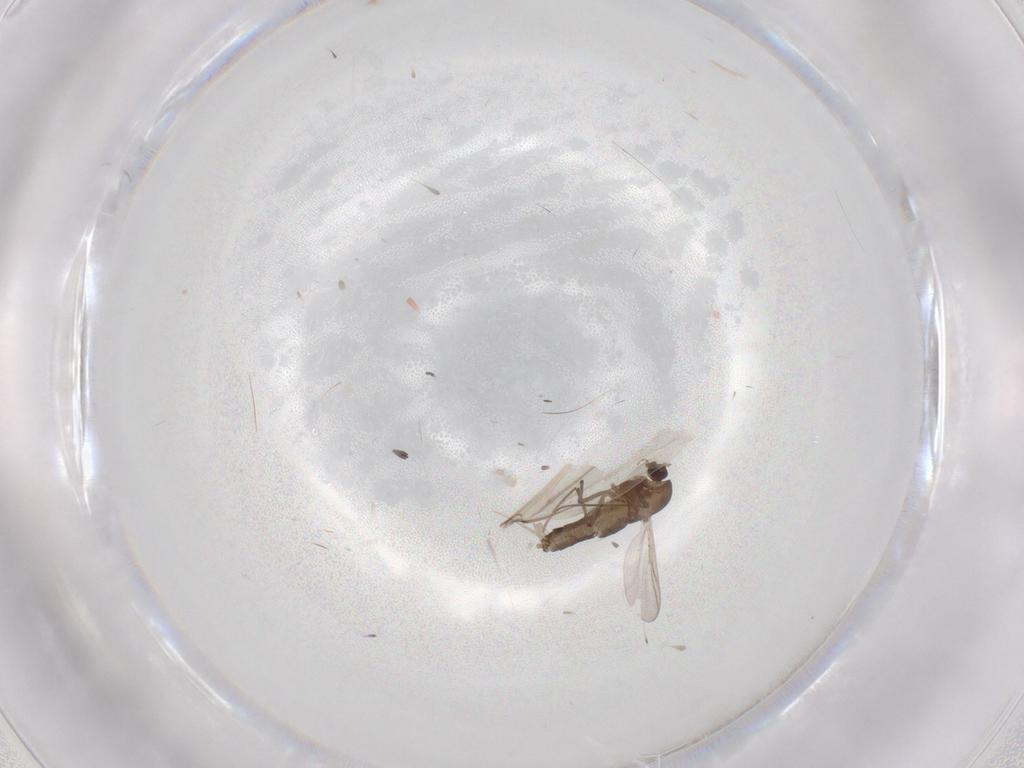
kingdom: Animalia
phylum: Arthropoda
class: Insecta
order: Diptera
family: Chironomidae
